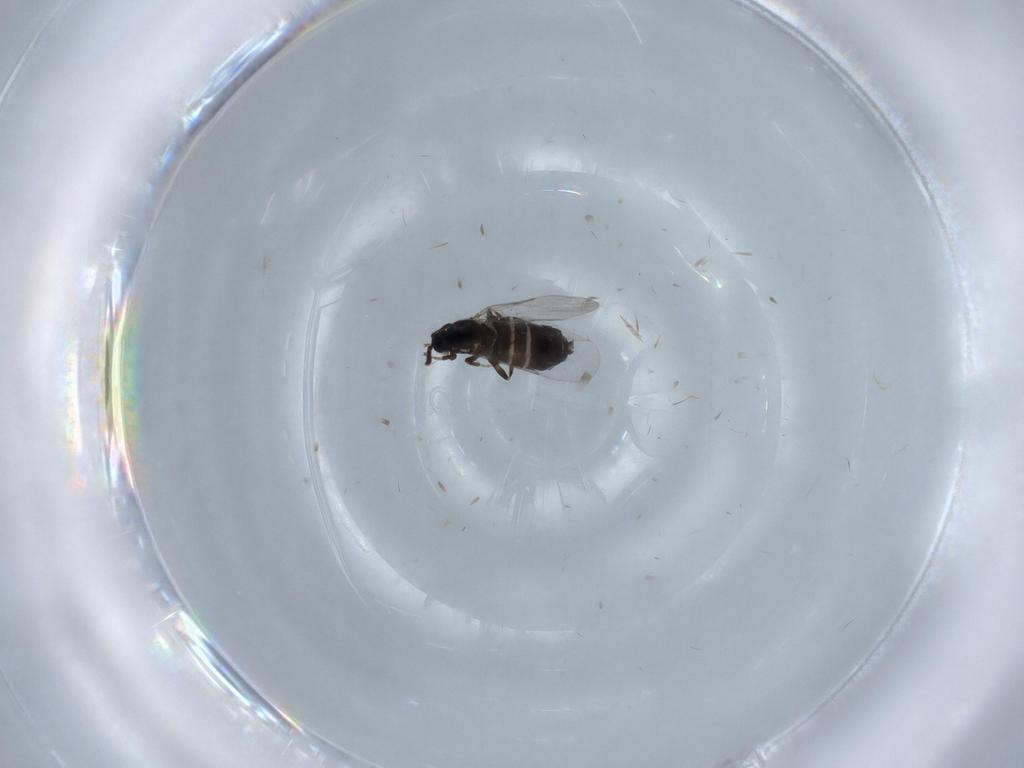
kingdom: Animalia
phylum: Arthropoda
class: Insecta
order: Diptera
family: Scatopsidae
